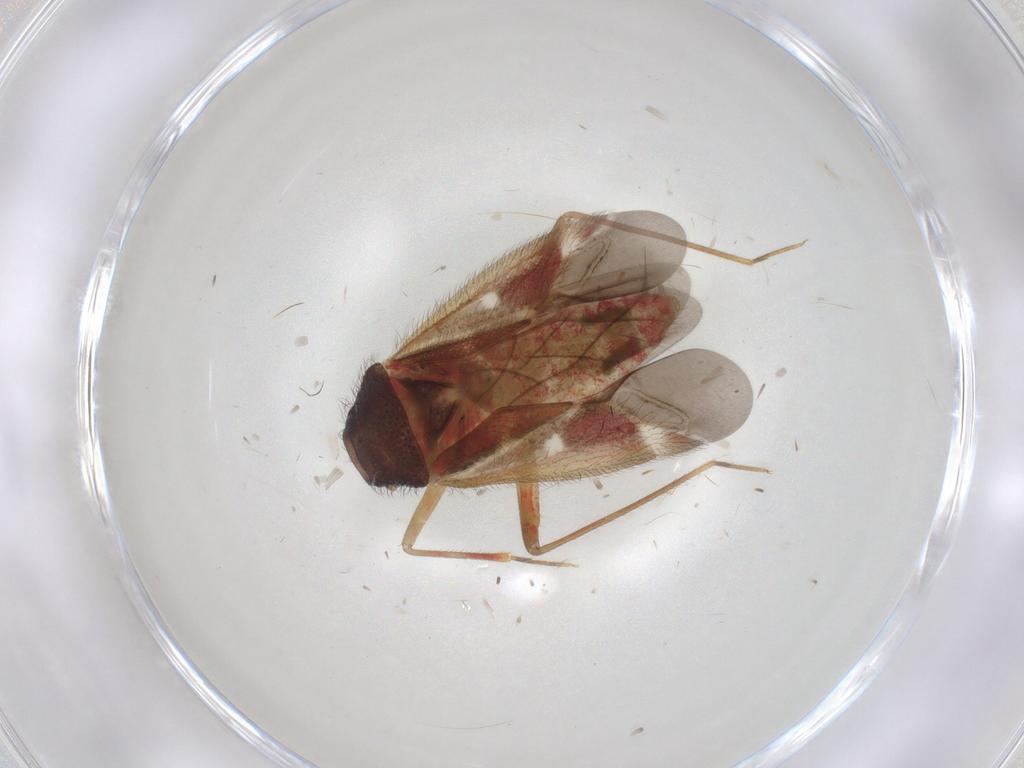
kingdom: Animalia
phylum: Arthropoda
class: Insecta
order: Hemiptera
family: Miridae
